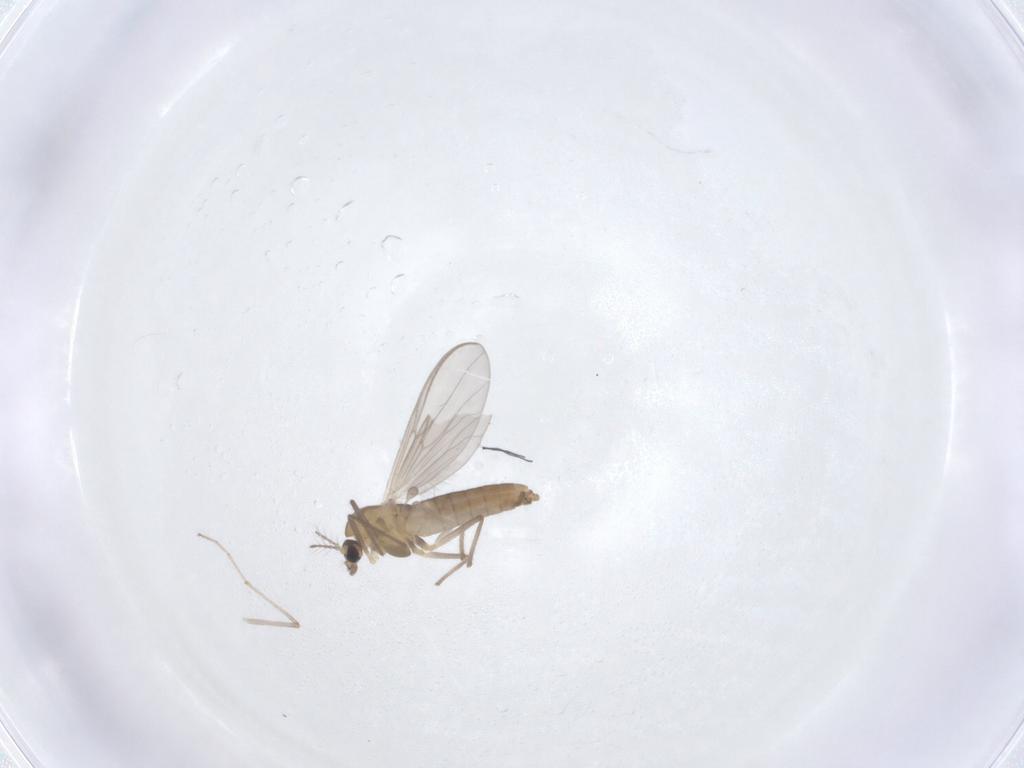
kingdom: Animalia
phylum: Arthropoda
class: Insecta
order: Diptera
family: Chironomidae
